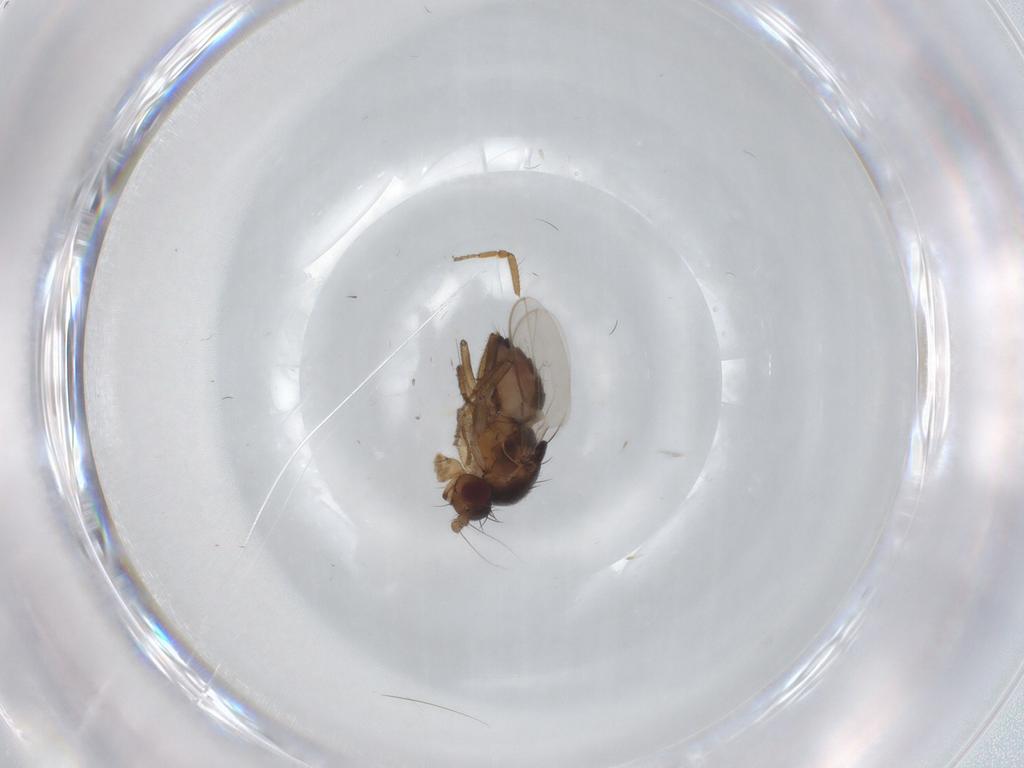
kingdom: Animalia
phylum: Arthropoda
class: Insecta
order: Diptera
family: Sphaeroceridae
